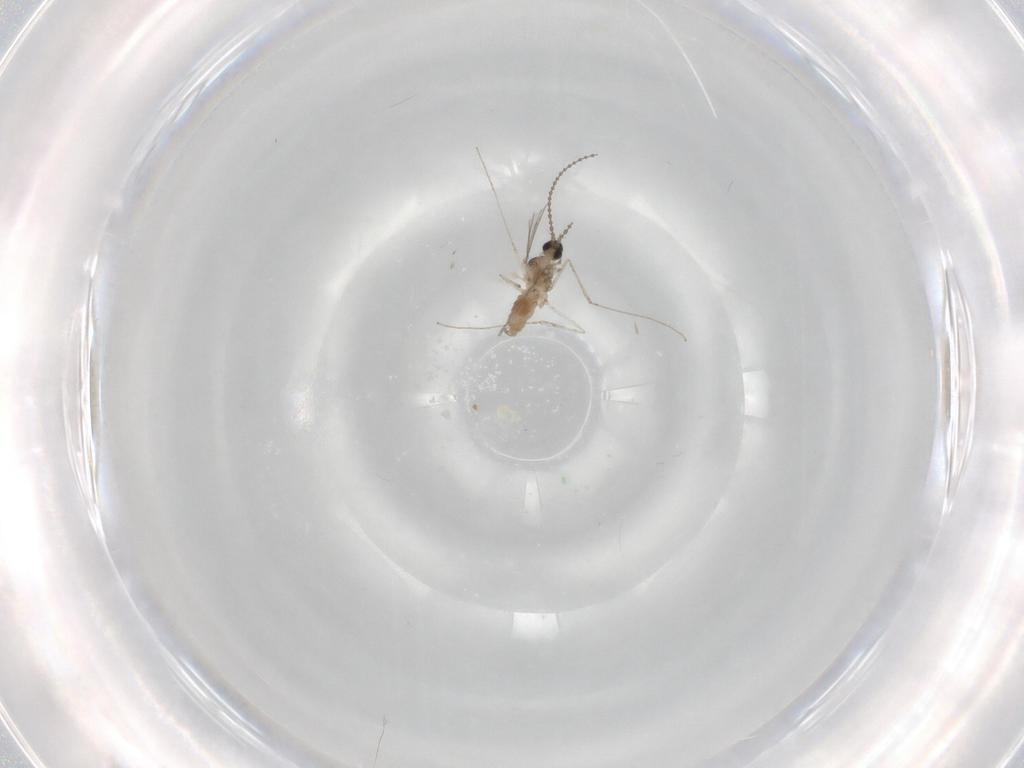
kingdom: Animalia
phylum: Arthropoda
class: Insecta
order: Diptera
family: Cecidomyiidae
